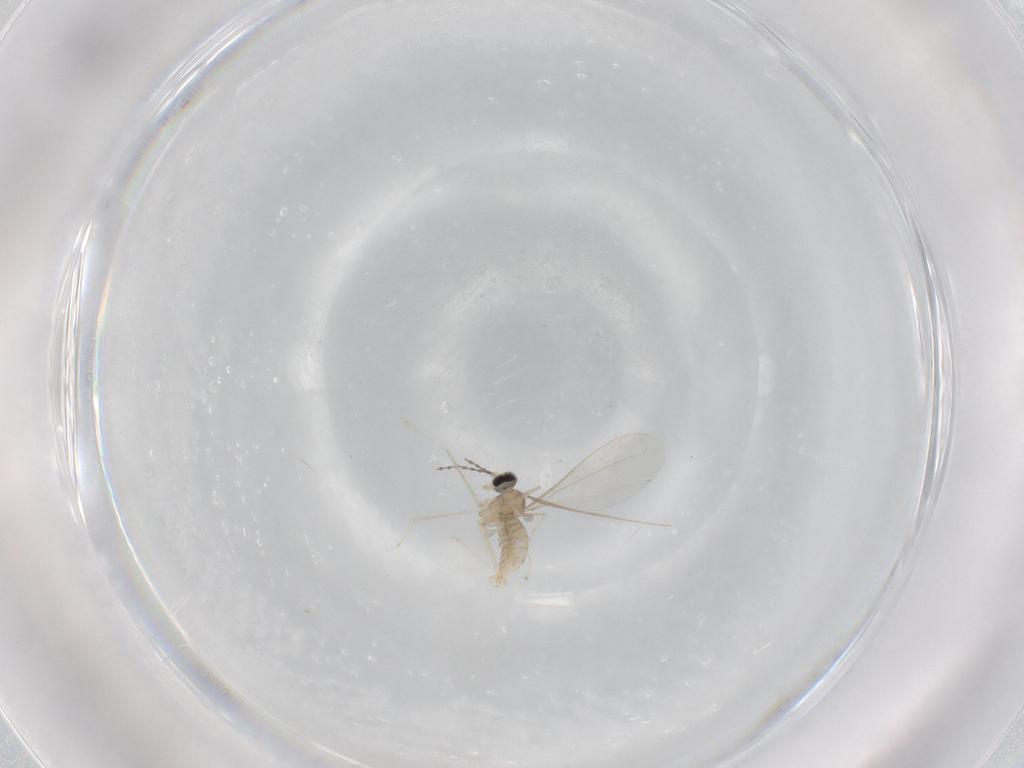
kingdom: Animalia
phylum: Arthropoda
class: Insecta
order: Diptera
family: Cecidomyiidae
